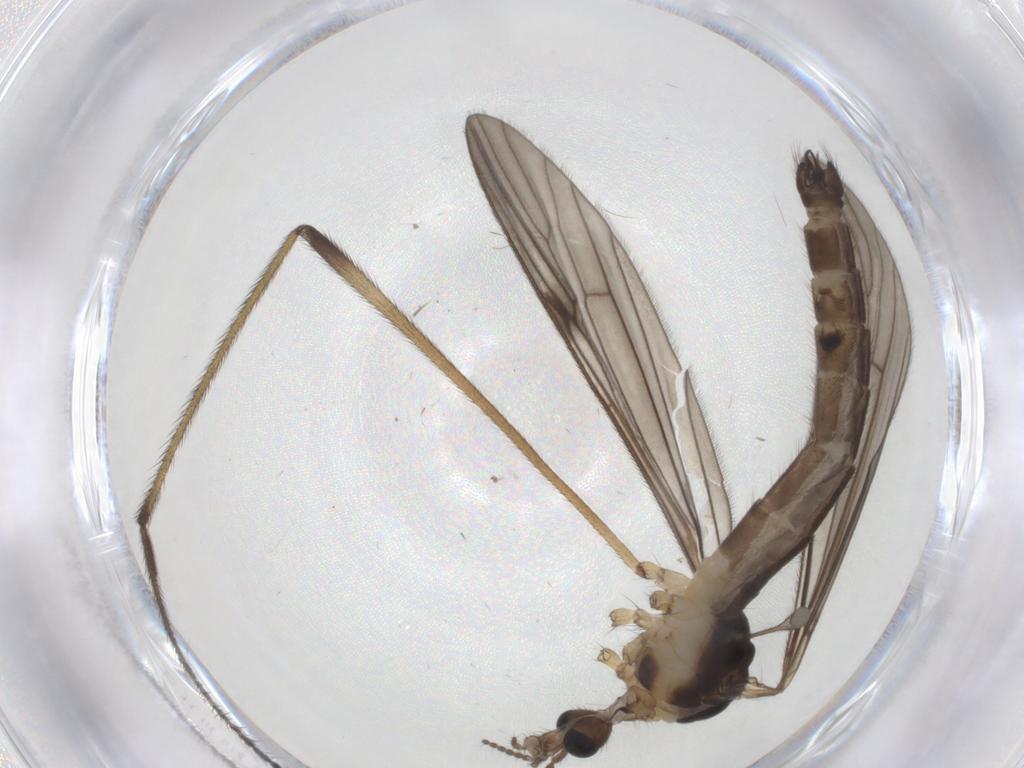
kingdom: Animalia
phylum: Arthropoda
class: Insecta
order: Diptera
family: Limoniidae
